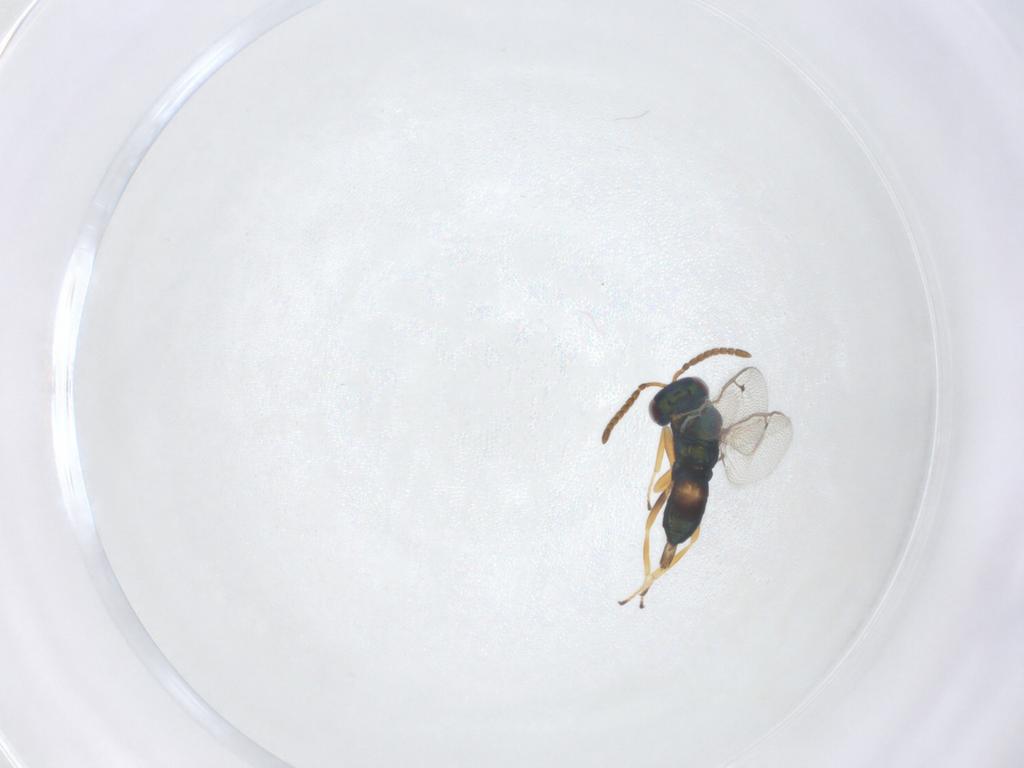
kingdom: Animalia
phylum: Arthropoda
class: Insecta
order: Hymenoptera
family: Pteromalidae
